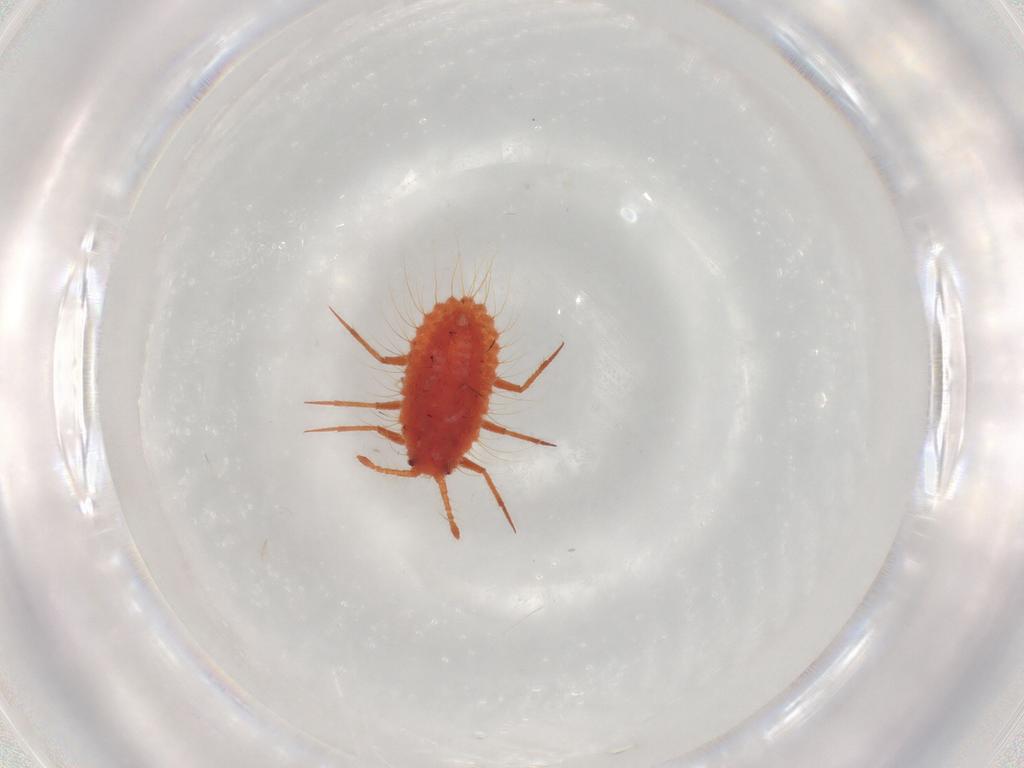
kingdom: Animalia
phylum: Arthropoda
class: Insecta
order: Hemiptera
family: Monophlebidae
